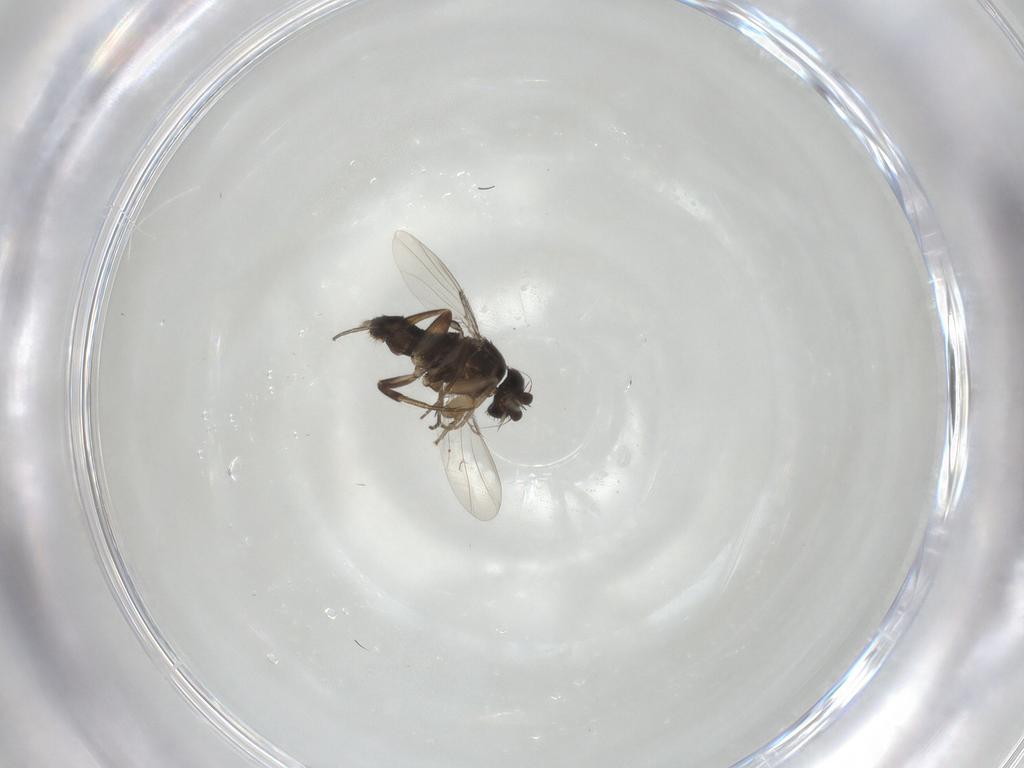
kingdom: Animalia
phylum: Arthropoda
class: Insecta
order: Diptera
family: Phoridae
